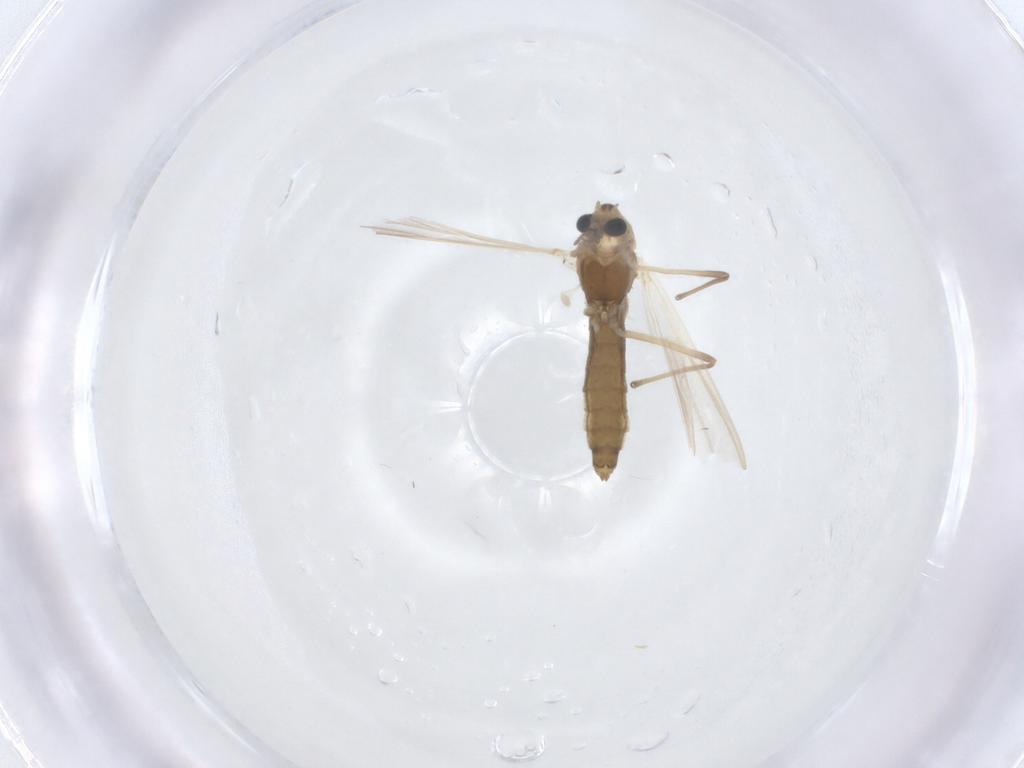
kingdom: Animalia
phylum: Arthropoda
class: Insecta
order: Diptera
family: Chironomidae
